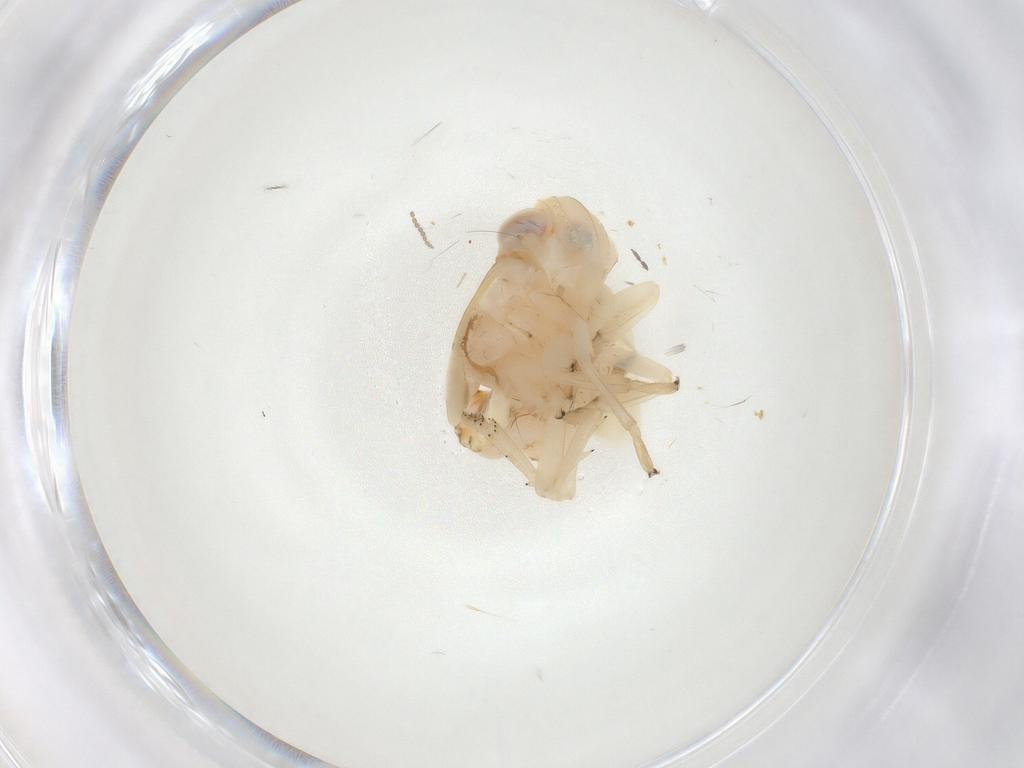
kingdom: Animalia
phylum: Arthropoda
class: Insecta
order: Hemiptera
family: Nogodinidae
